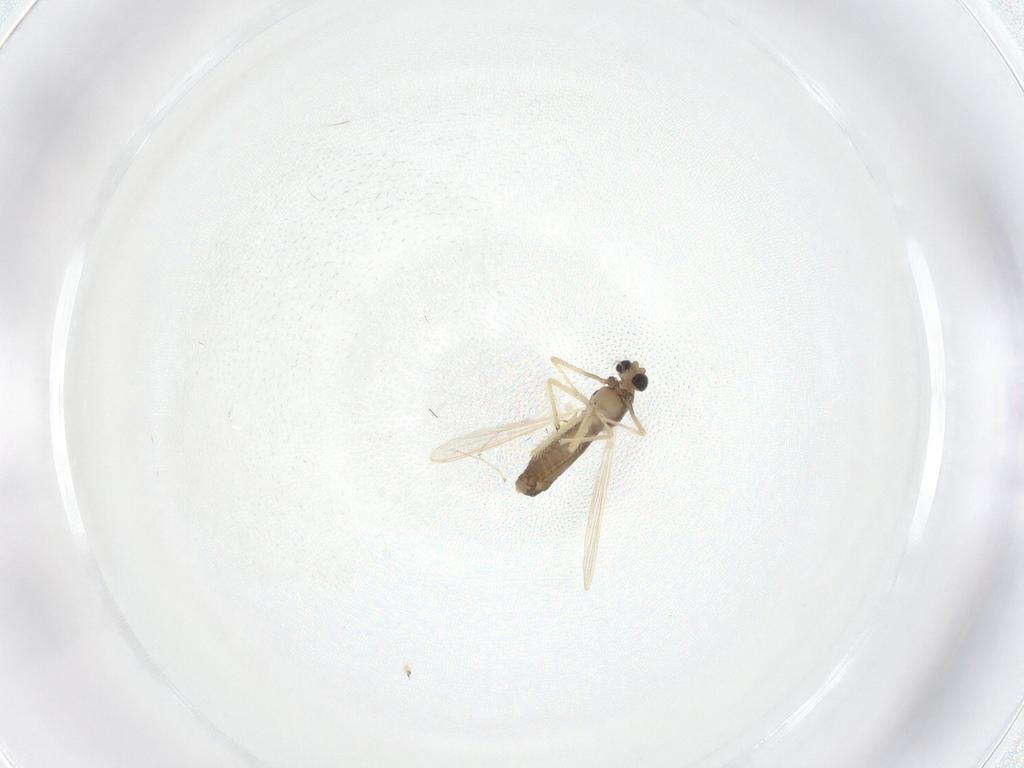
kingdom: Animalia
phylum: Arthropoda
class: Insecta
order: Diptera
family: Chironomidae
